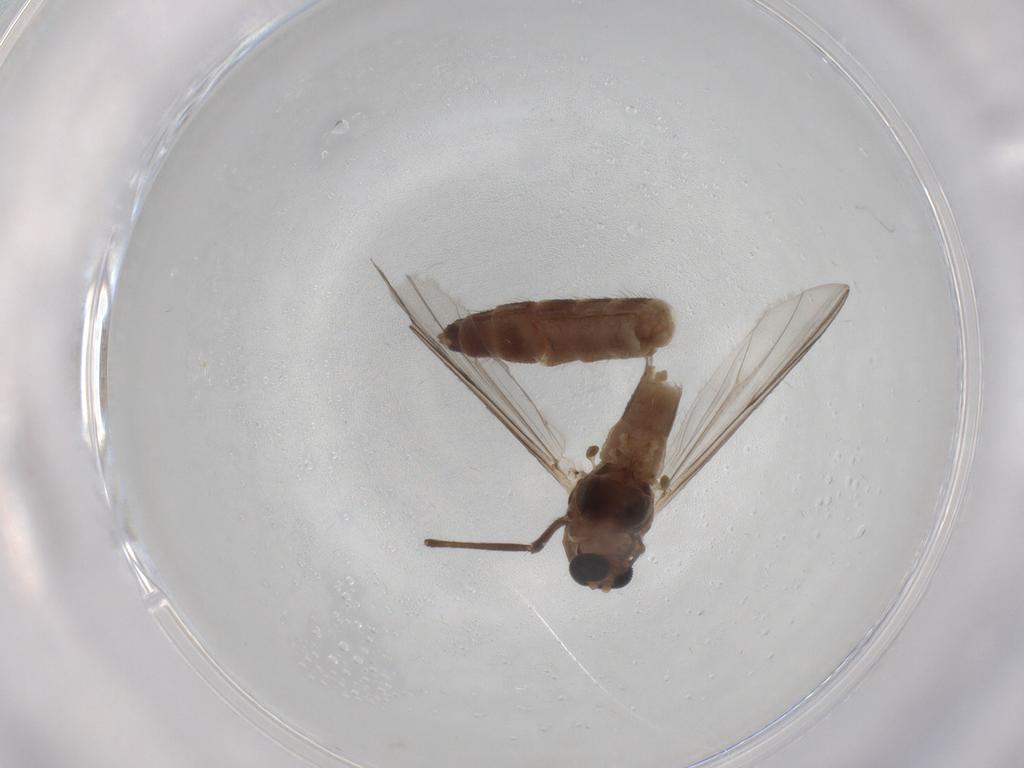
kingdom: Animalia
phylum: Arthropoda
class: Insecta
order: Diptera
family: Chironomidae
